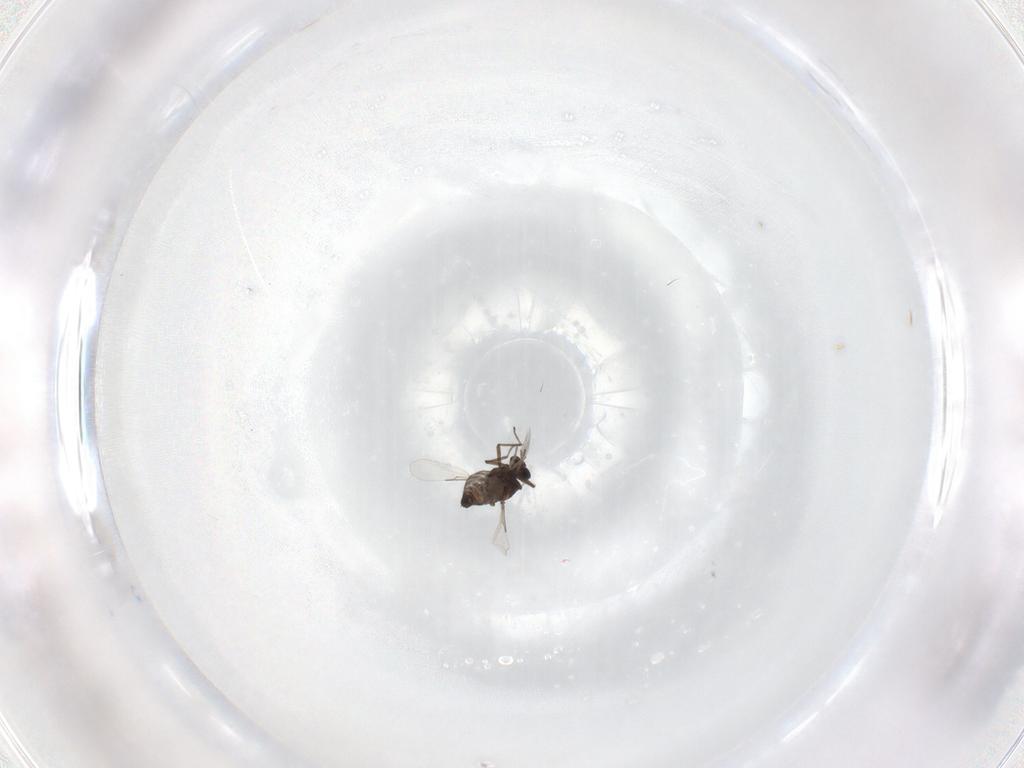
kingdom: Animalia
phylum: Arthropoda
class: Insecta
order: Diptera
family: Ceratopogonidae
